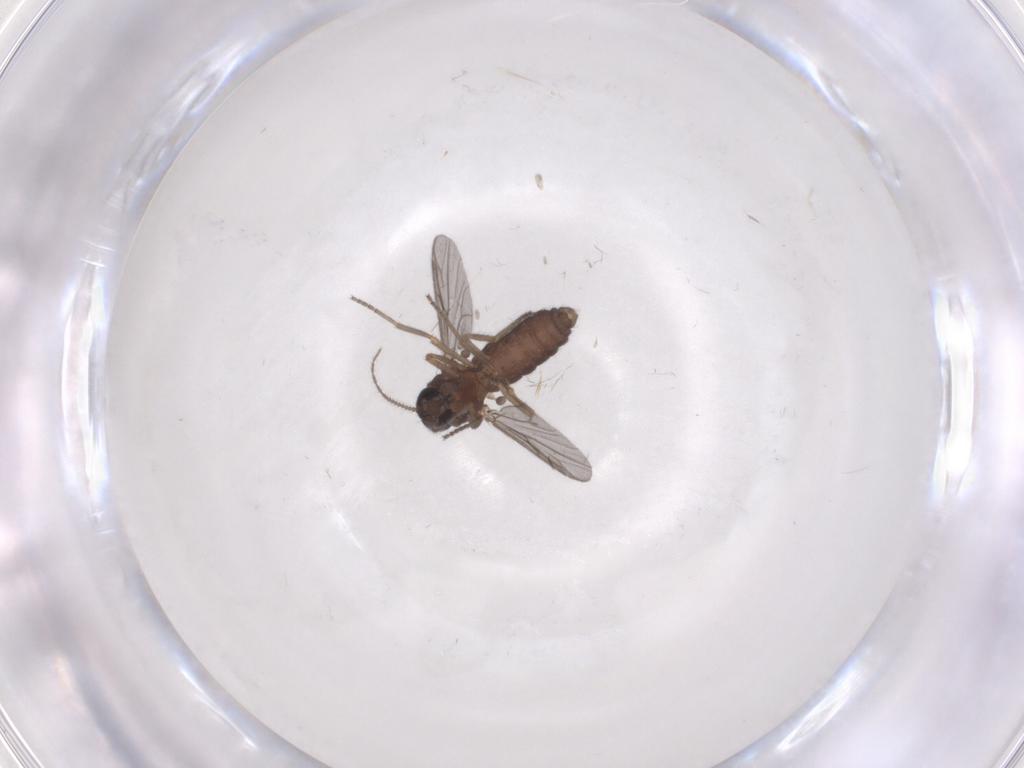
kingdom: Animalia
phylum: Arthropoda
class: Insecta
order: Diptera
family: Ceratopogonidae
